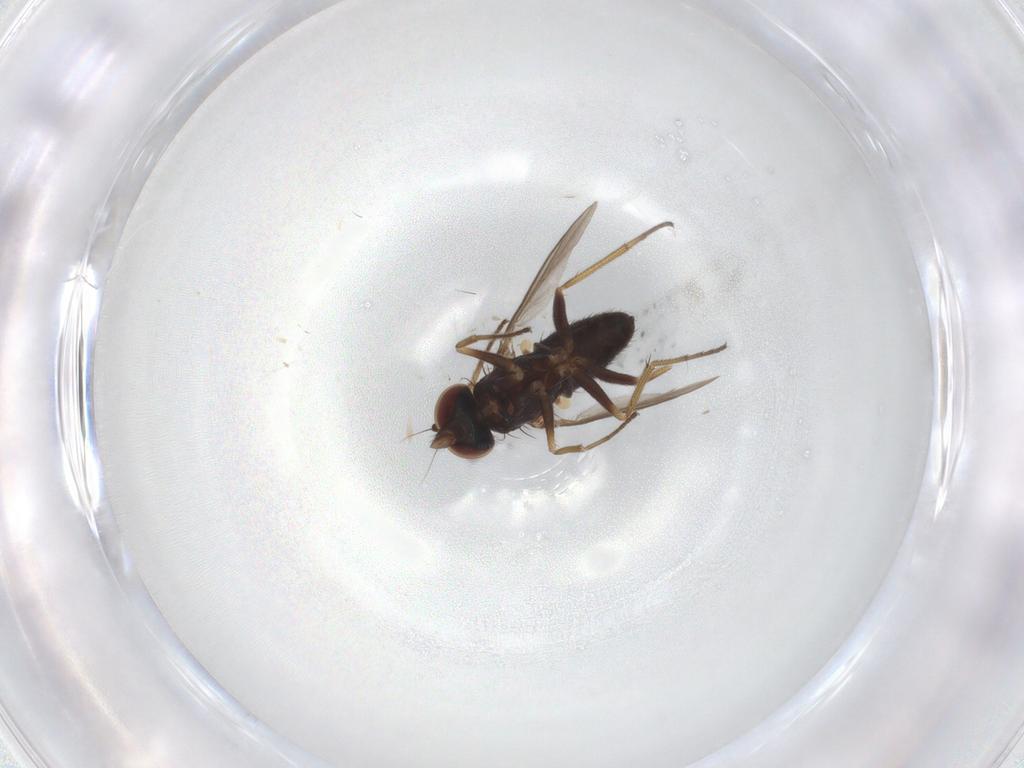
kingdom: Animalia
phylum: Arthropoda
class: Insecta
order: Diptera
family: Dolichopodidae
